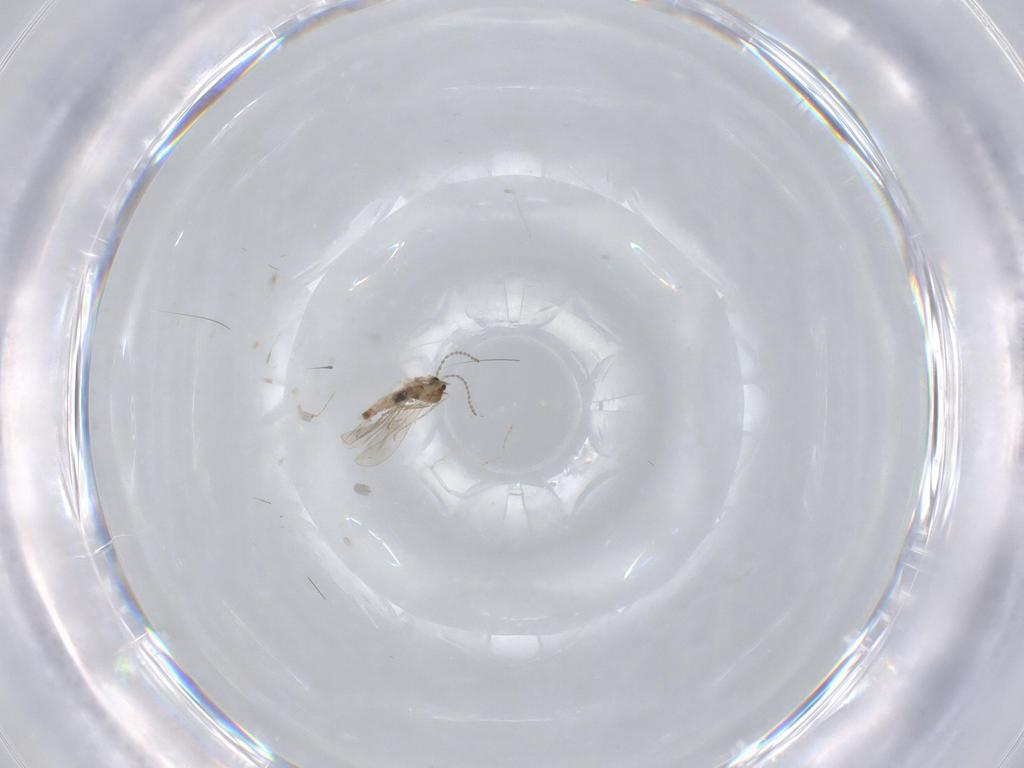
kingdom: Animalia
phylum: Arthropoda
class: Insecta
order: Diptera
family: Cecidomyiidae
